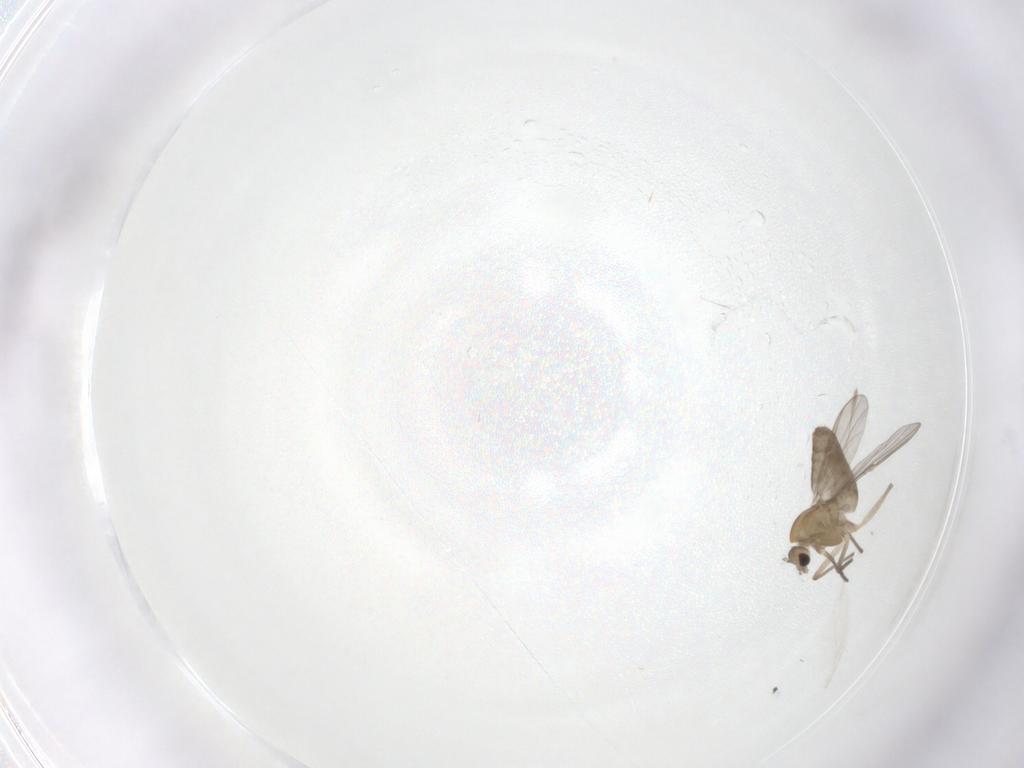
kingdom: Animalia
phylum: Arthropoda
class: Insecta
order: Diptera
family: Chironomidae
